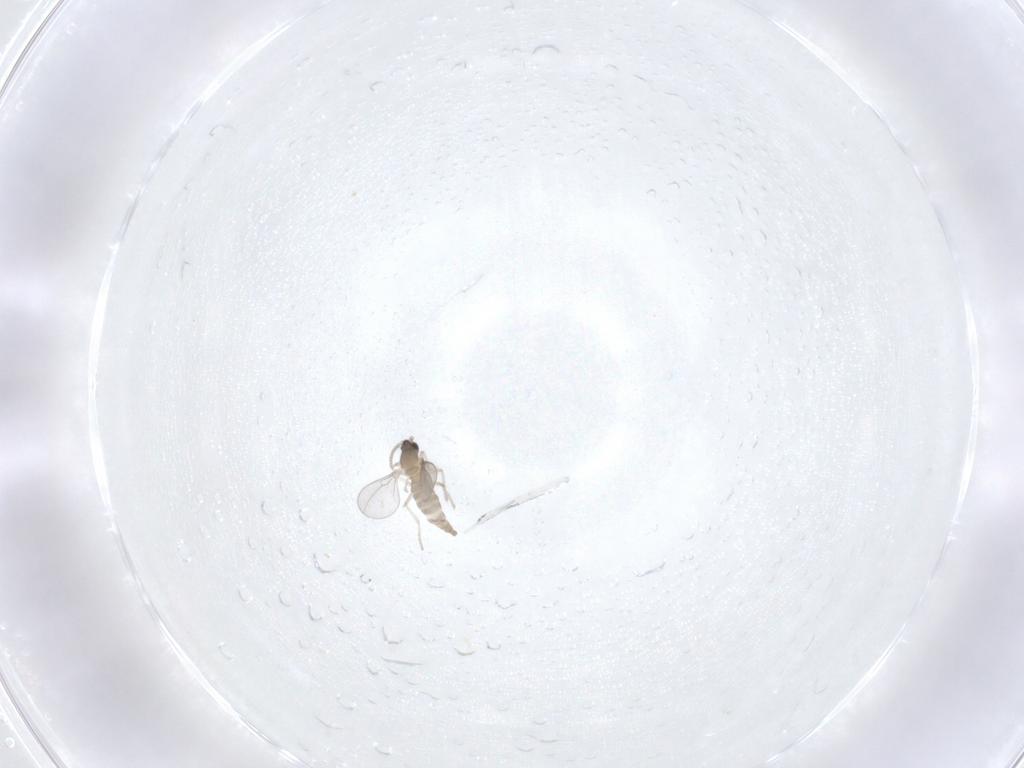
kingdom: Animalia
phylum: Arthropoda
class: Insecta
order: Diptera
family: Cecidomyiidae
